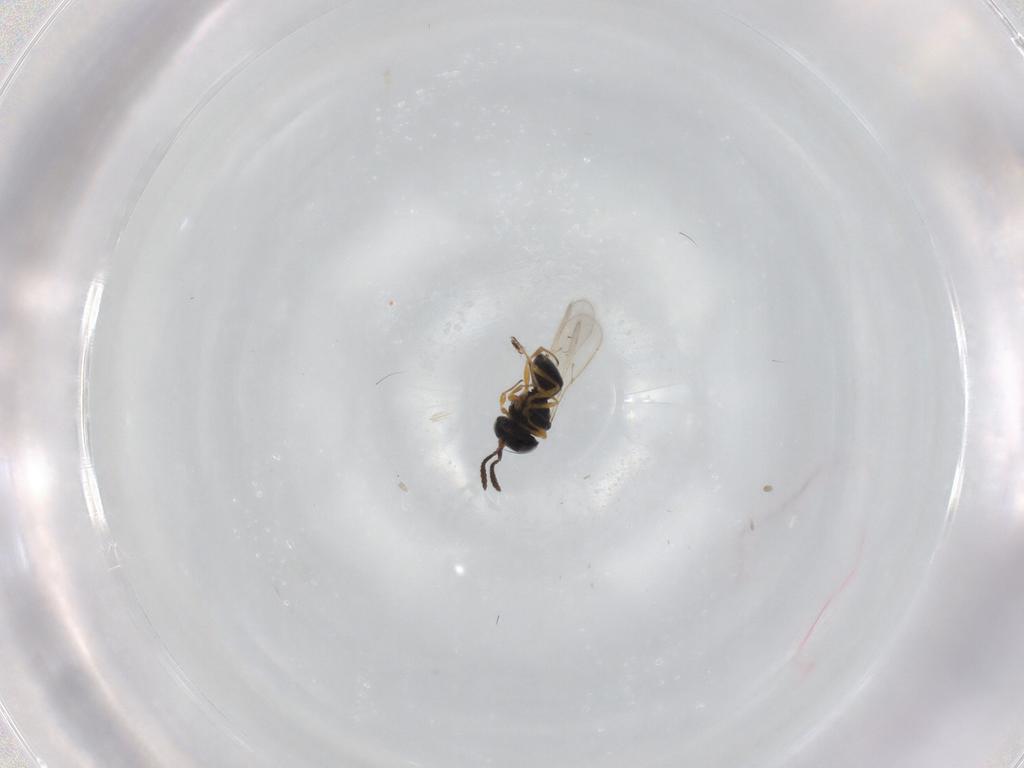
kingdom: Animalia
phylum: Arthropoda
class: Insecta
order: Hymenoptera
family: Scelionidae
